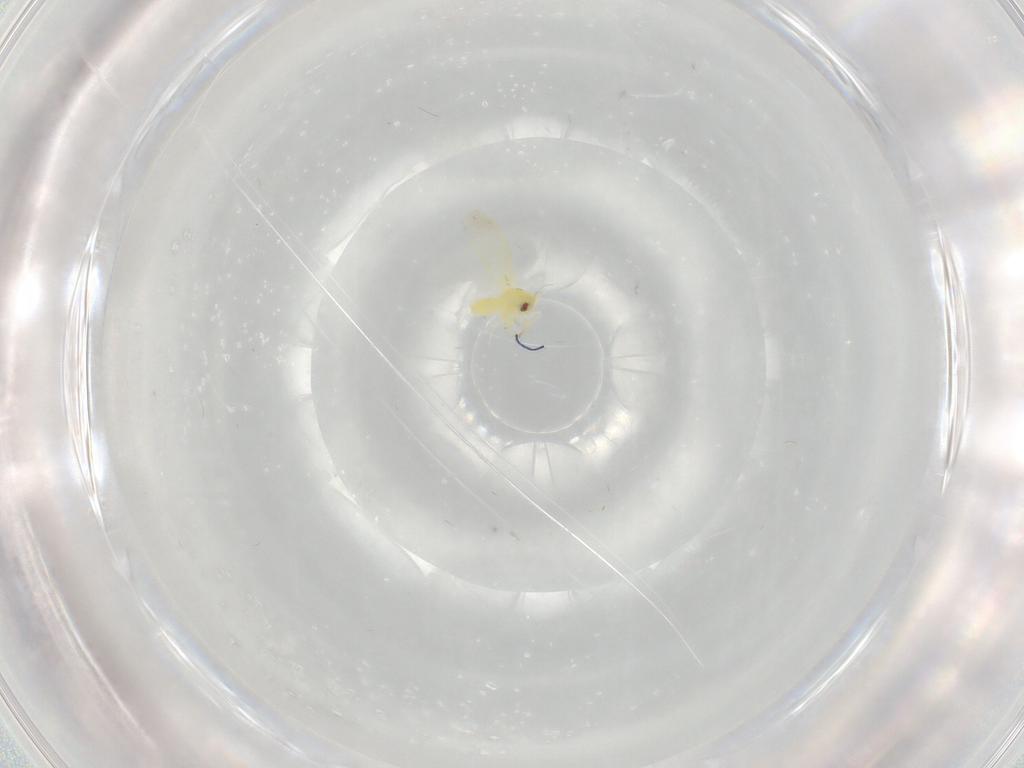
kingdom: Animalia
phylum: Arthropoda
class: Insecta
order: Hemiptera
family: Aleyrodidae
